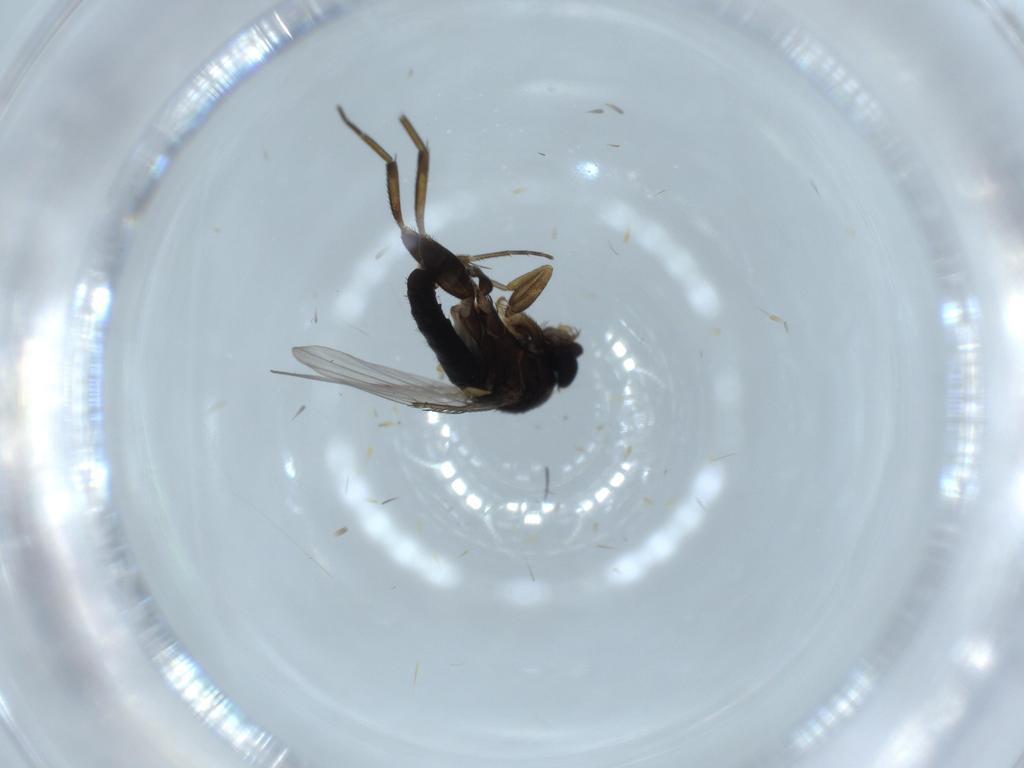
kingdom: Animalia
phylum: Arthropoda
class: Insecta
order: Diptera
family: Phoridae
